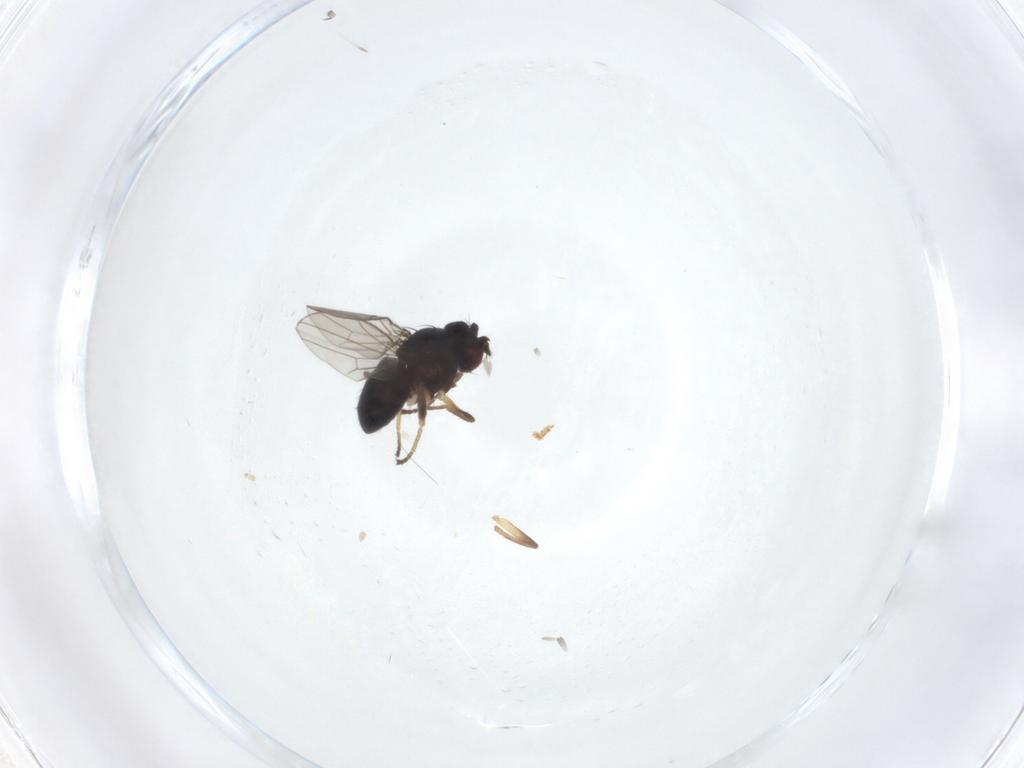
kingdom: Animalia
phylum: Arthropoda
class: Insecta
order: Diptera
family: Ephydridae
